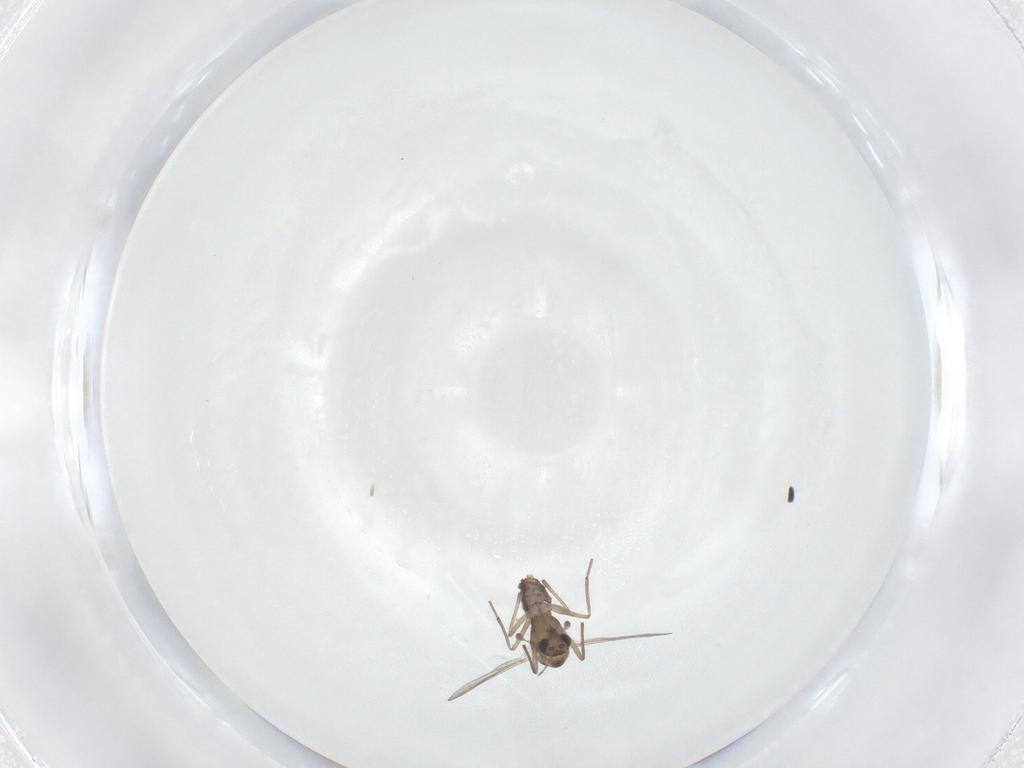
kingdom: Animalia
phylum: Arthropoda
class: Insecta
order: Diptera
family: Chironomidae
